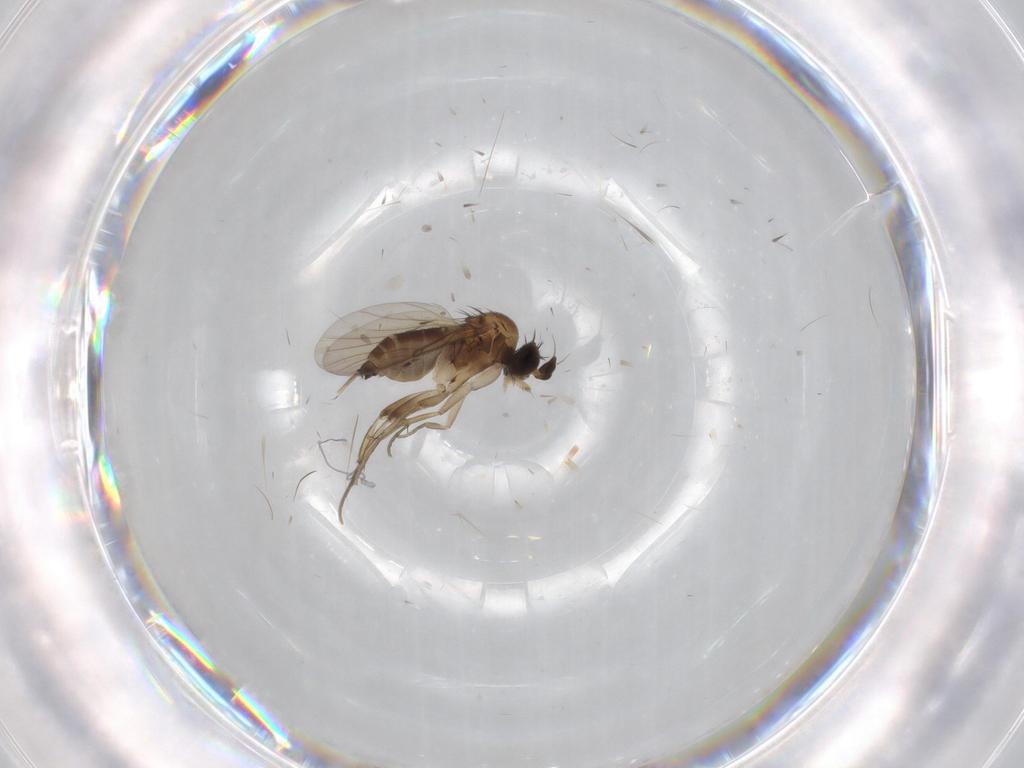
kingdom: Animalia
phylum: Arthropoda
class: Insecta
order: Diptera
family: Phoridae
